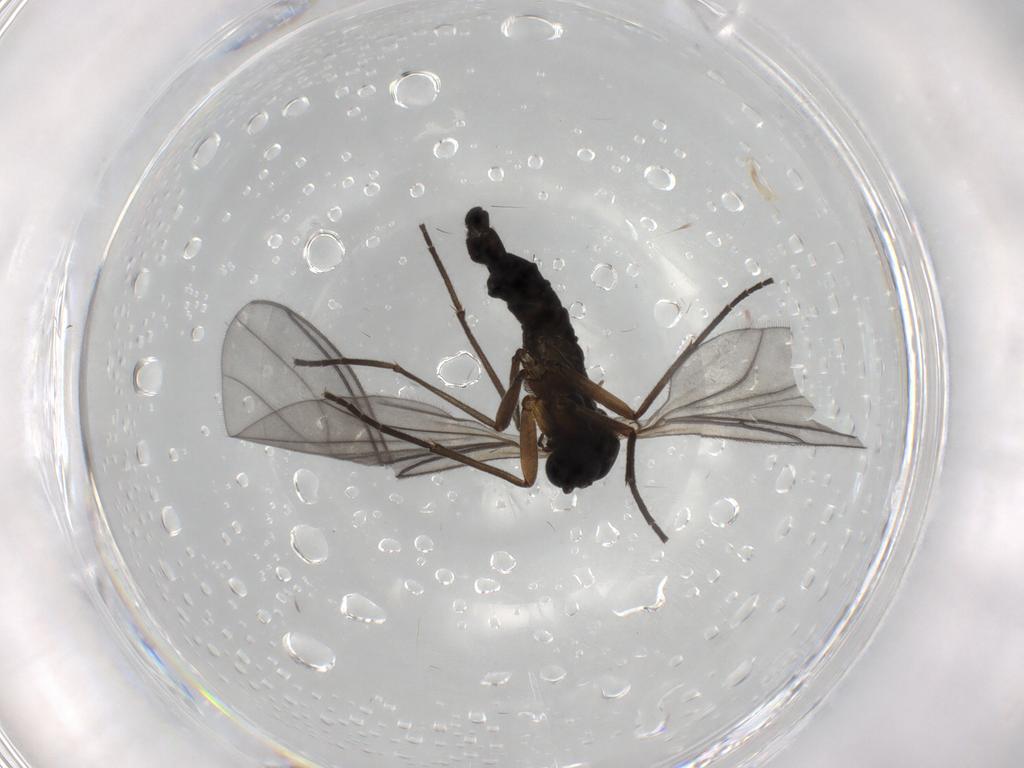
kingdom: Animalia
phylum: Arthropoda
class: Insecta
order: Diptera
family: Sciaridae
